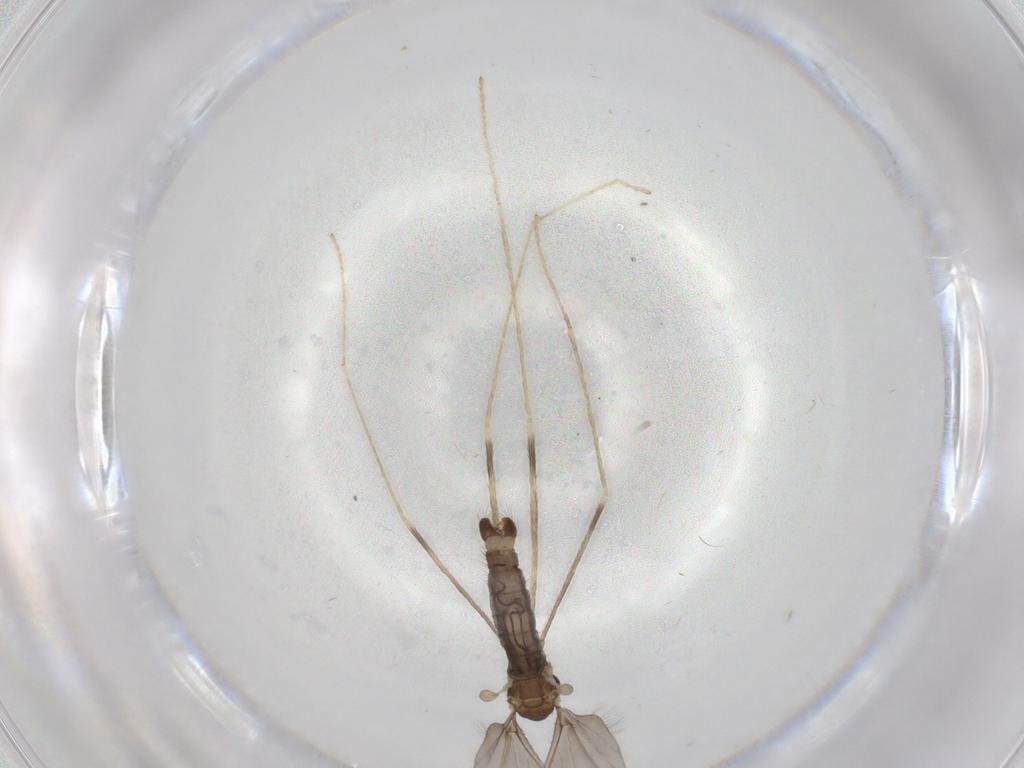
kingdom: Animalia
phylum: Arthropoda
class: Insecta
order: Diptera
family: Limoniidae
